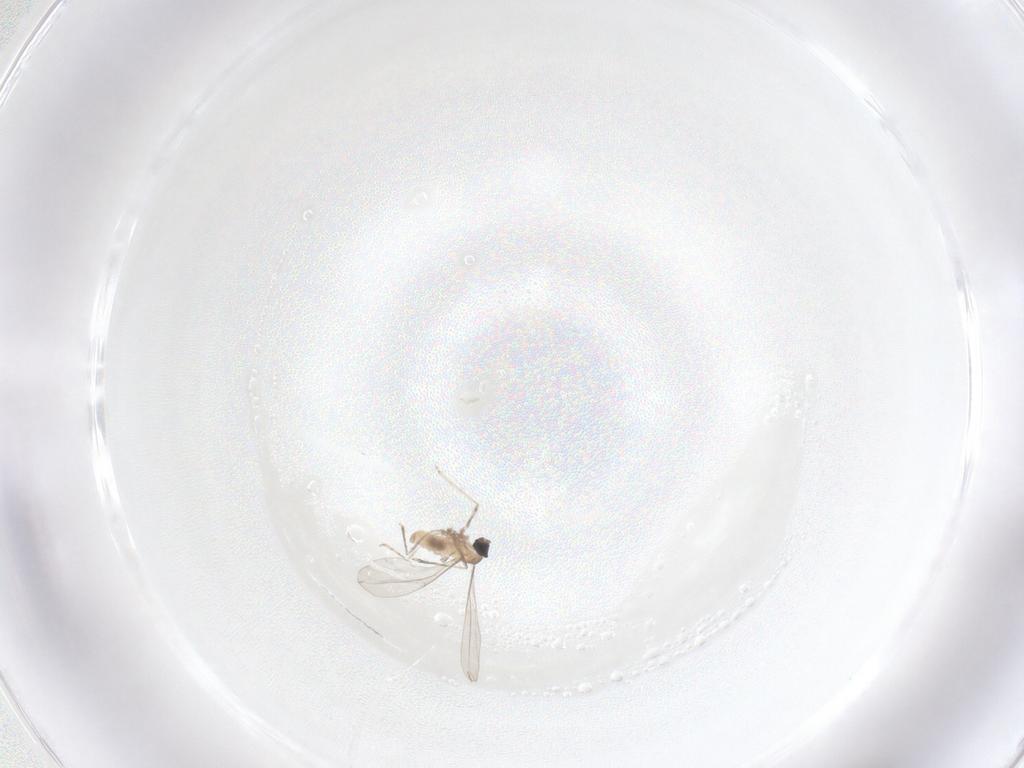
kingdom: Animalia
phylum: Arthropoda
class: Insecta
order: Diptera
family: Cecidomyiidae
